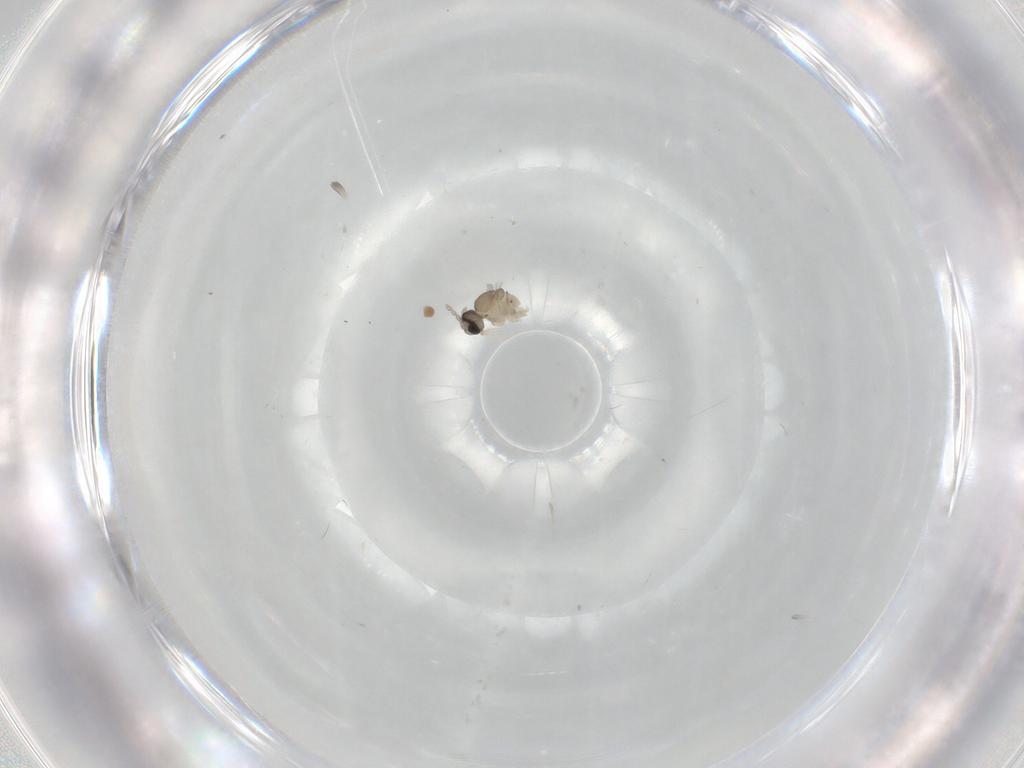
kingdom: Animalia
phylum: Arthropoda
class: Insecta
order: Diptera
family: Cecidomyiidae
